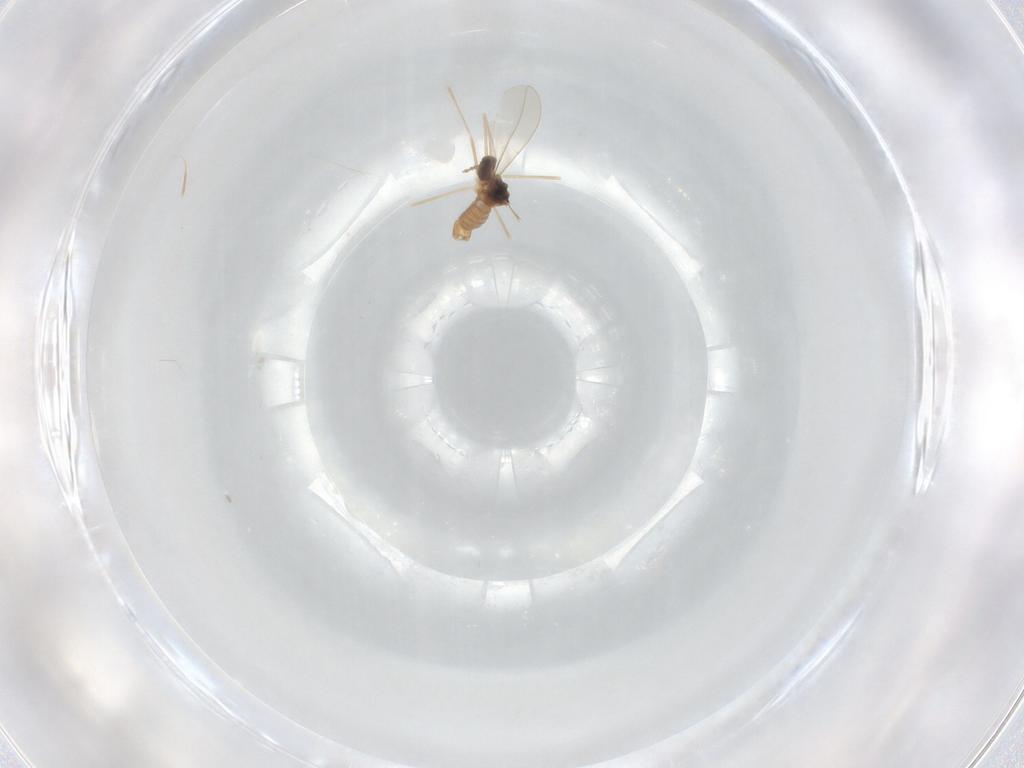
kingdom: Animalia
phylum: Arthropoda
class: Insecta
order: Diptera
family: Cecidomyiidae
